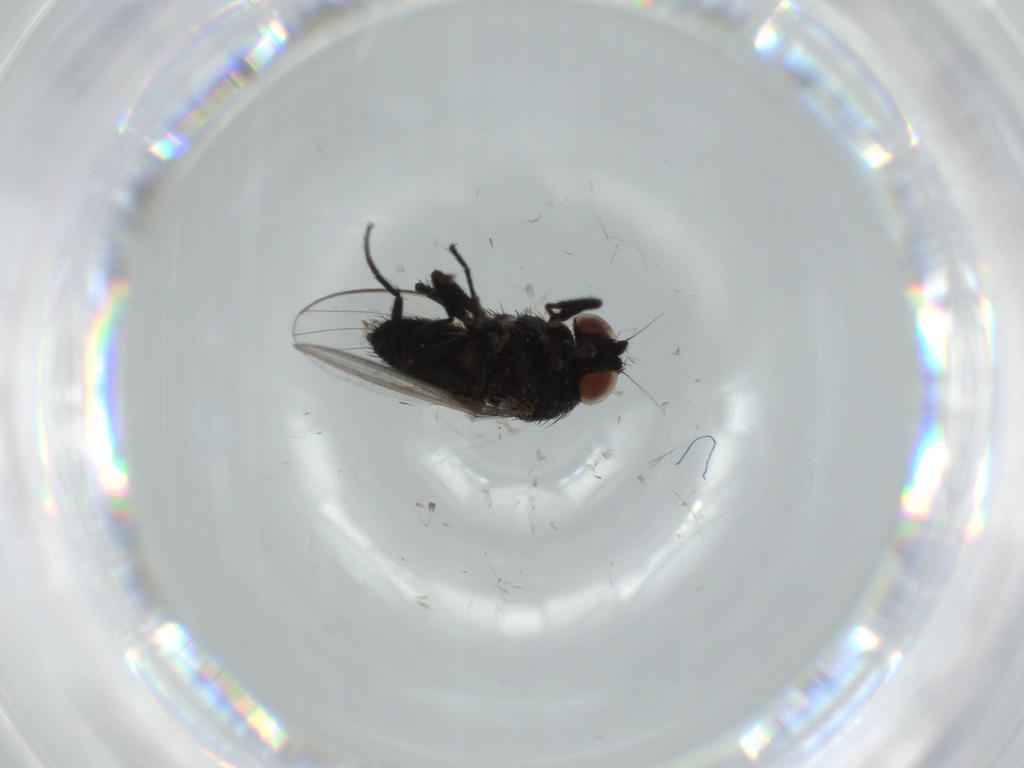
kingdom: Animalia
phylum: Arthropoda
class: Insecta
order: Diptera
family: Milichiidae
